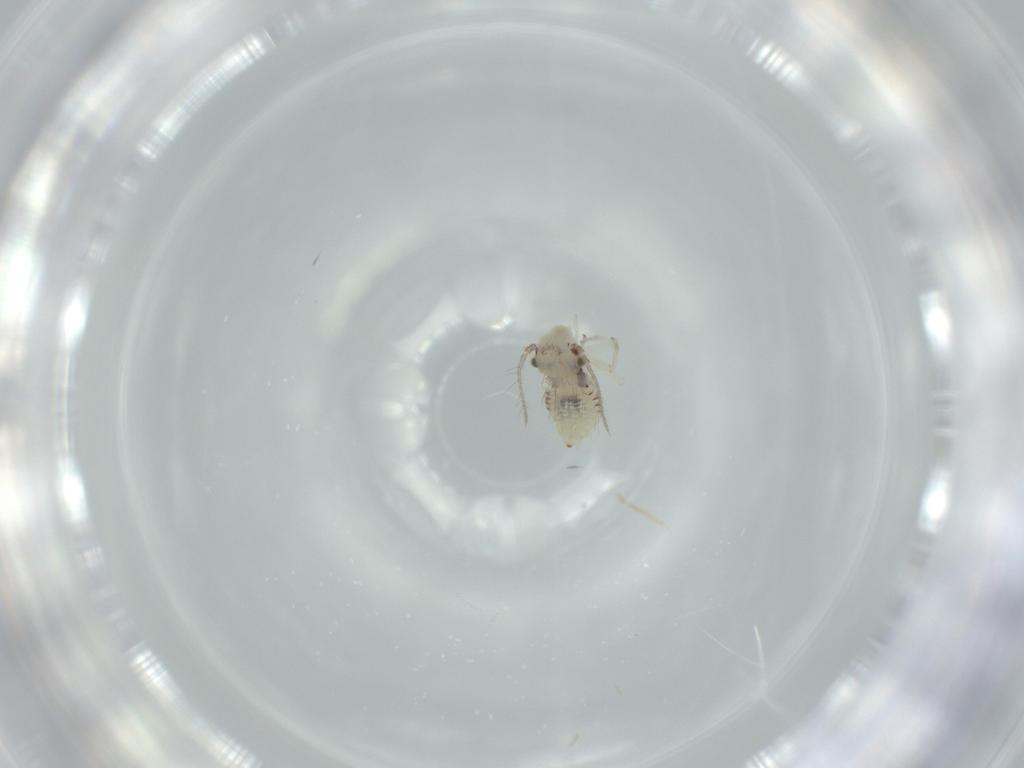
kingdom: Animalia
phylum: Arthropoda
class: Insecta
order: Psocodea
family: Pseudocaeciliidae
